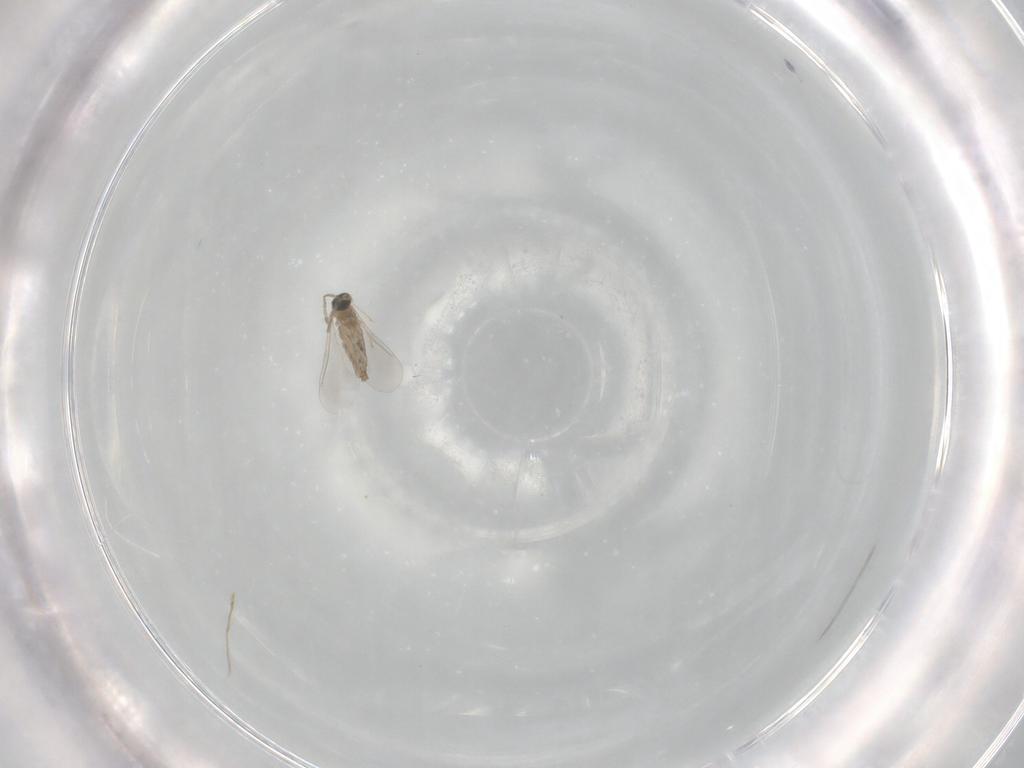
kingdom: Animalia
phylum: Arthropoda
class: Insecta
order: Diptera
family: Cecidomyiidae
